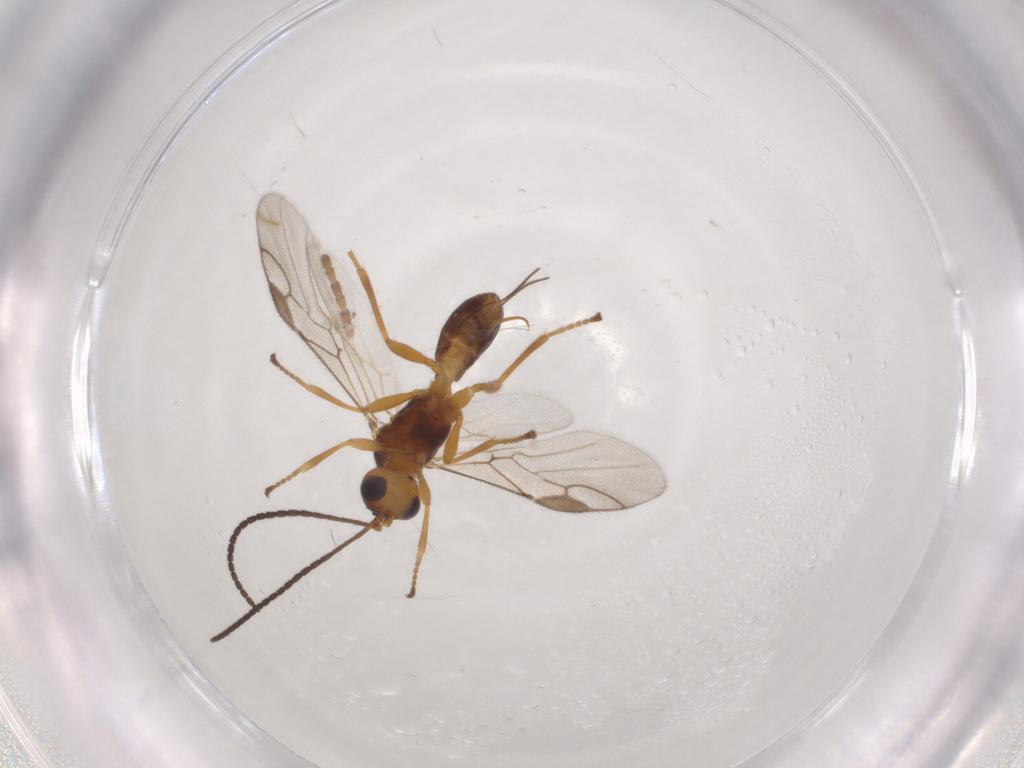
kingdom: Animalia
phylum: Arthropoda
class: Insecta
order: Hymenoptera
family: Braconidae
